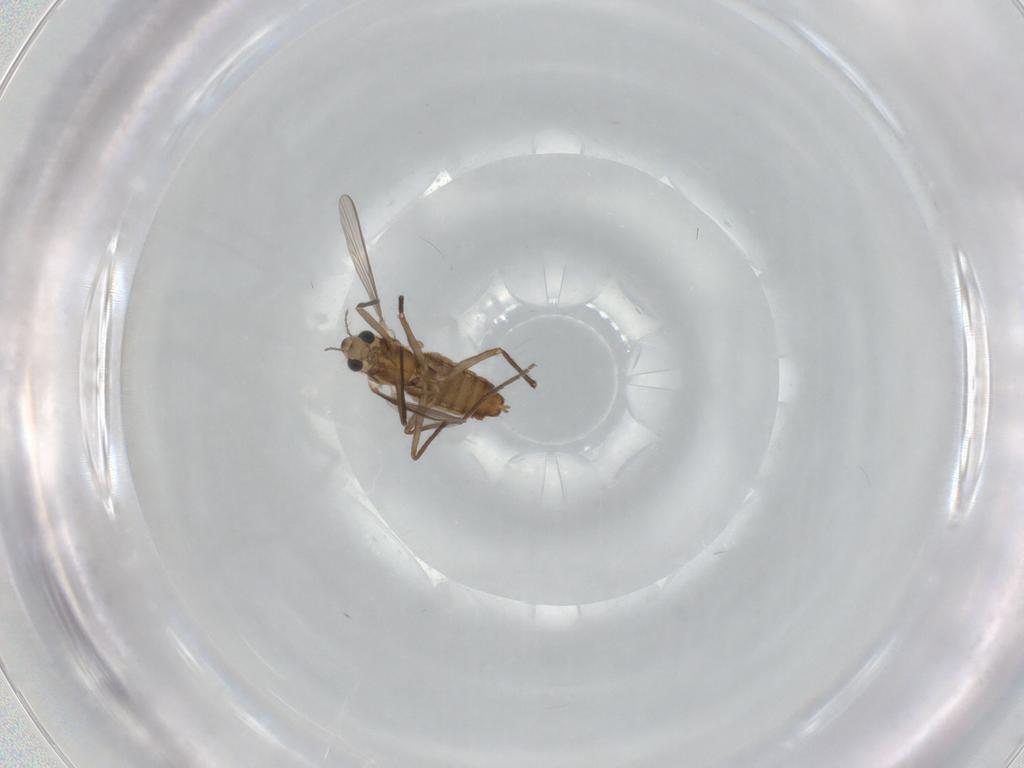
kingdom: Animalia
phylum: Arthropoda
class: Insecta
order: Diptera
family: Chironomidae
